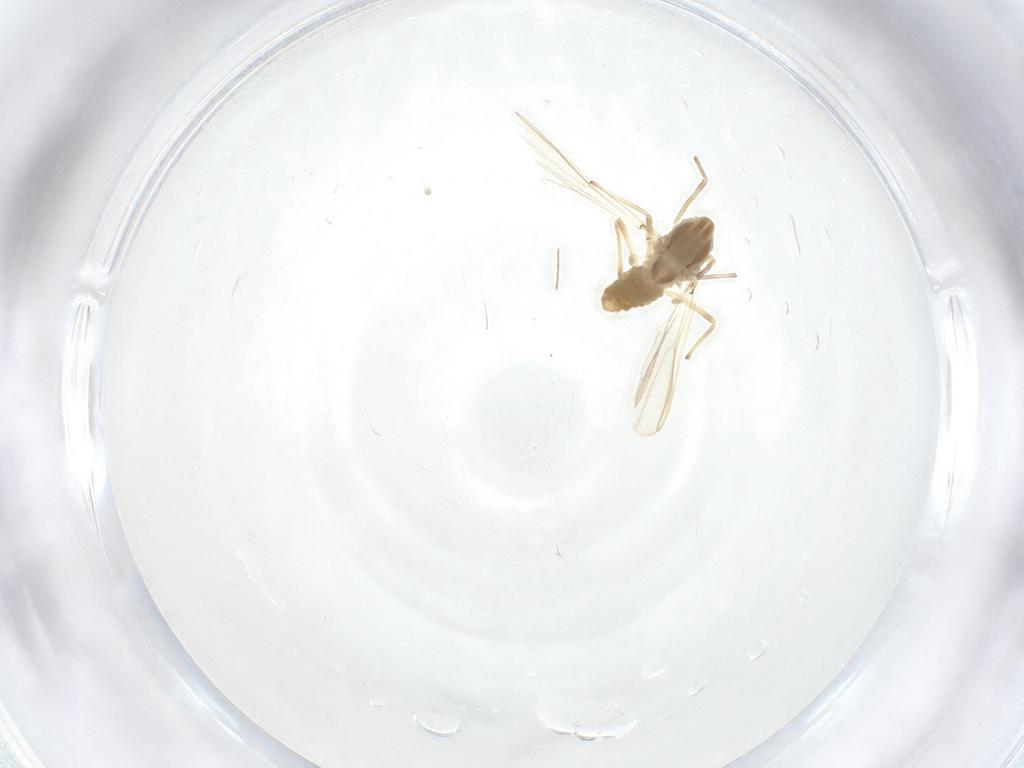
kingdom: Animalia
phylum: Arthropoda
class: Insecta
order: Diptera
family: Chironomidae
